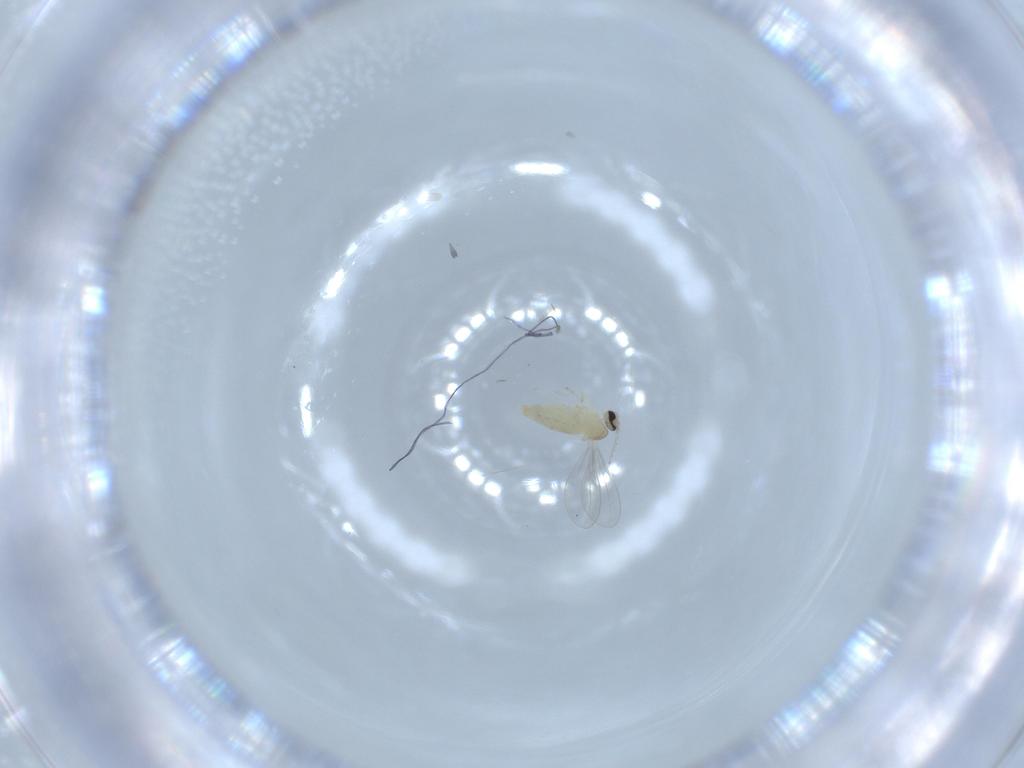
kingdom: Animalia
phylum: Arthropoda
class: Insecta
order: Diptera
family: Cecidomyiidae
